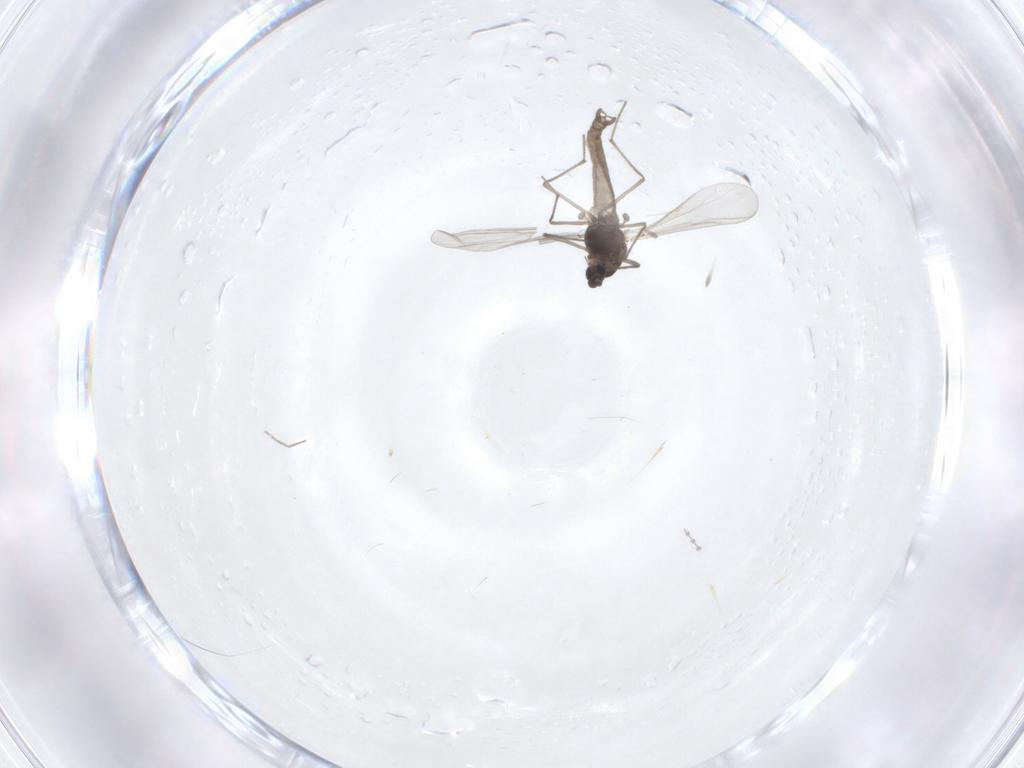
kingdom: Animalia
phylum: Arthropoda
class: Insecta
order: Diptera
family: Chironomidae
